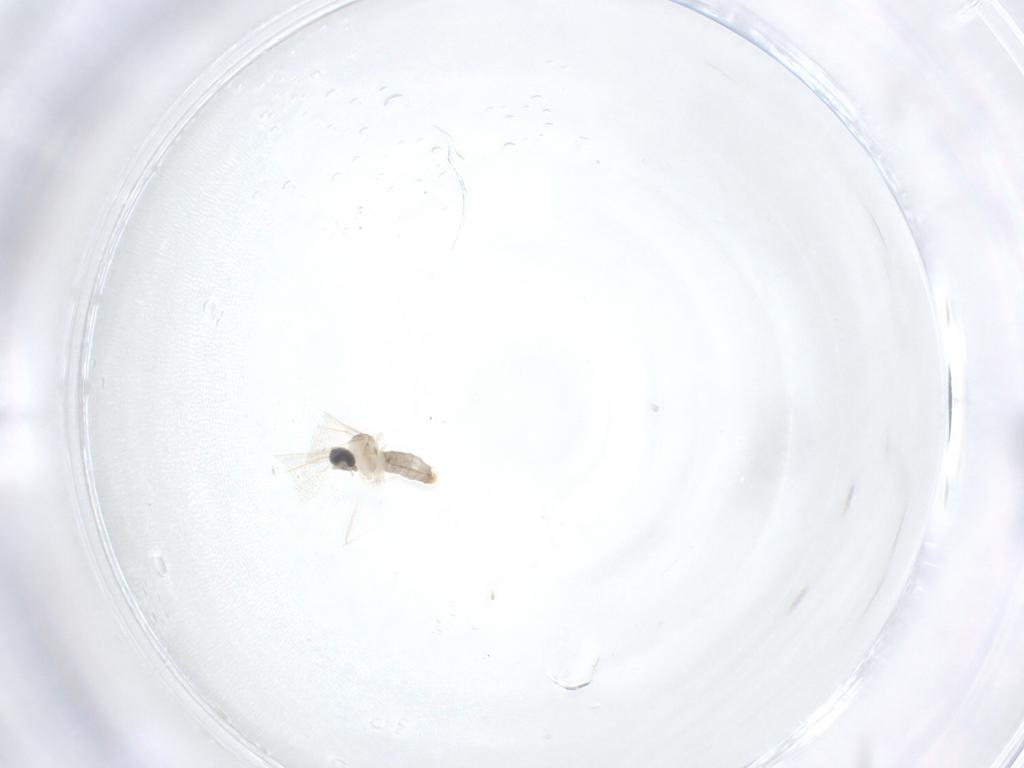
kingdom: Animalia
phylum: Arthropoda
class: Insecta
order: Diptera
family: Cecidomyiidae
